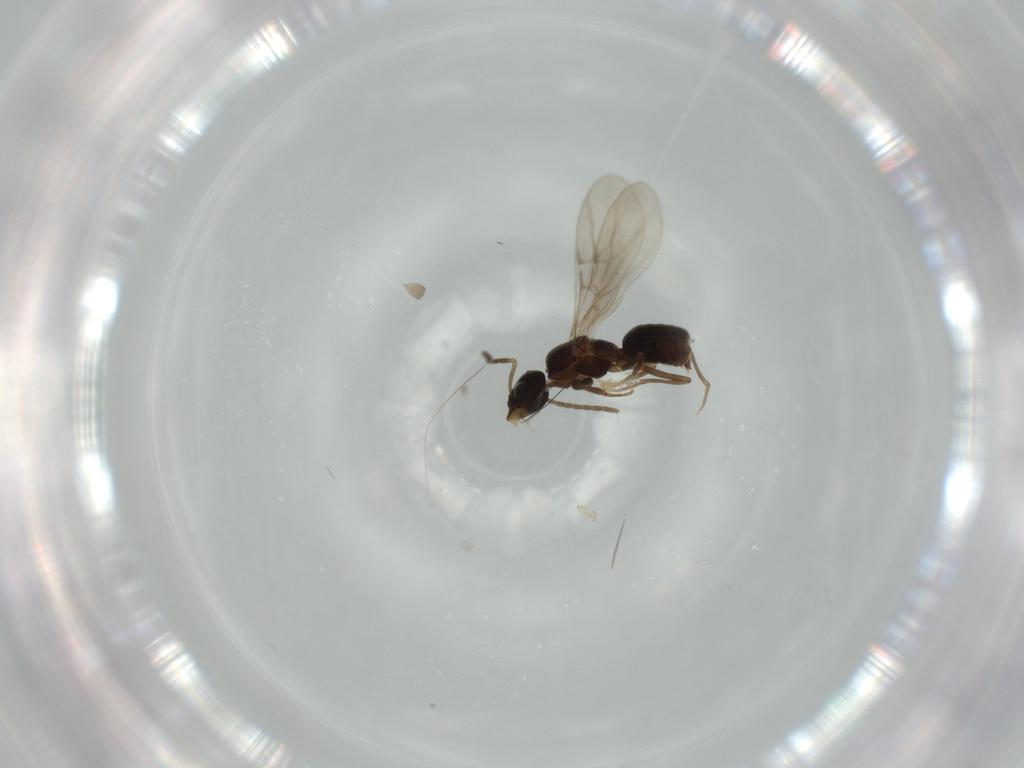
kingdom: Animalia
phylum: Arthropoda
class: Insecta
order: Hymenoptera
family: Formicidae
